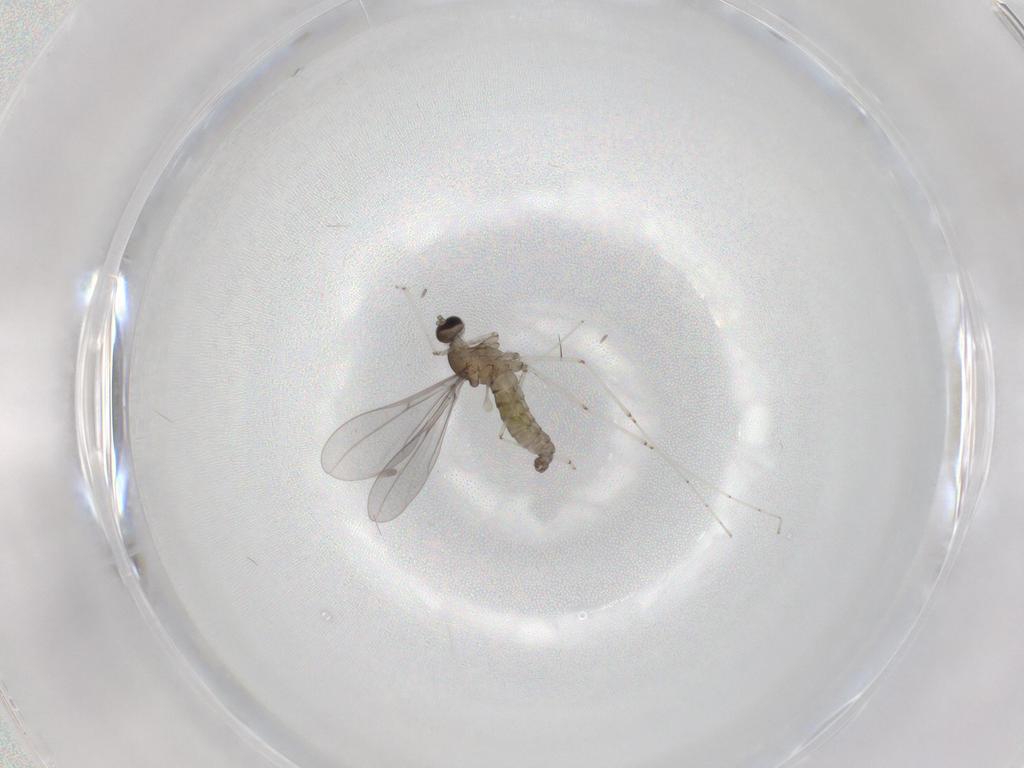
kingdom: Animalia
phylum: Arthropoda
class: Insecta
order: Diptera
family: Cecidomyiidae
